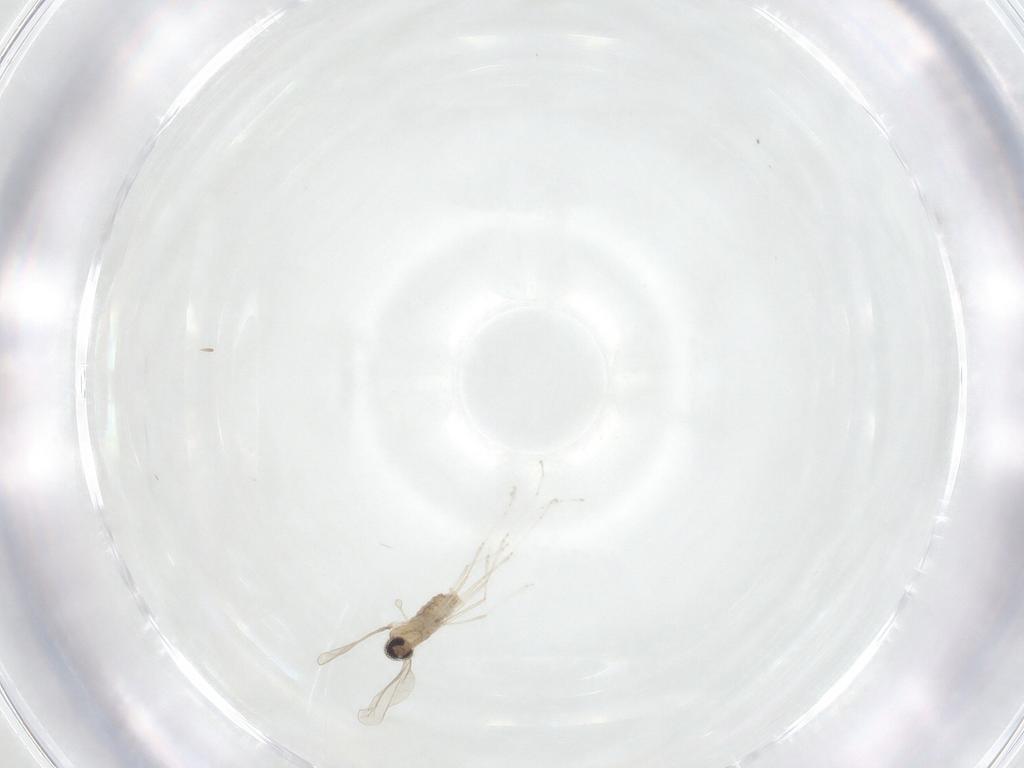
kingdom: Animalia
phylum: Arthropoda
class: Insecta
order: Diptera
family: Cecidomyiidae
